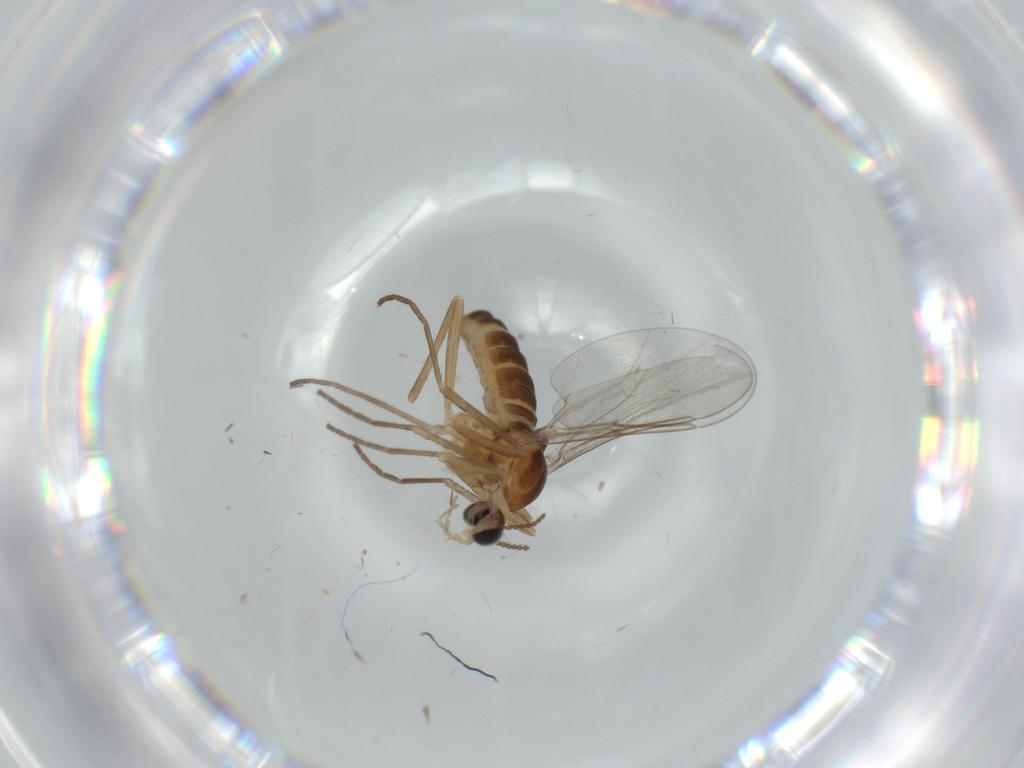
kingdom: Animalia
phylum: Arthropoda
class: Insecta
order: Diptera
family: Cecidomyiidae
